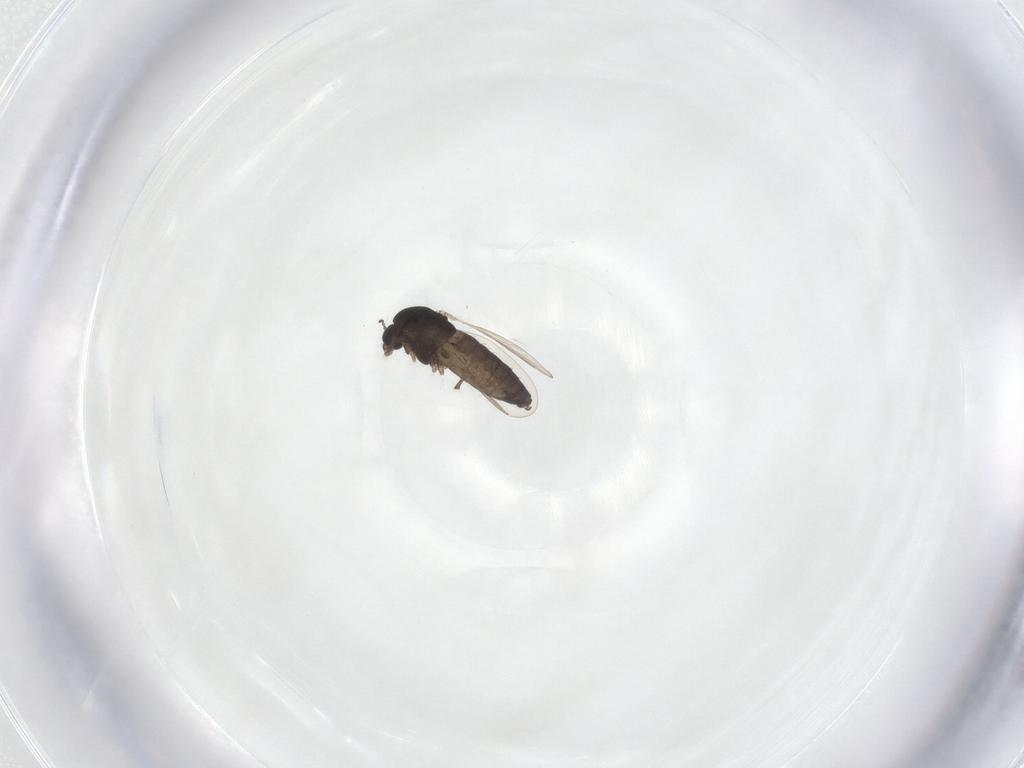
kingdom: Animalia
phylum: Arthropoda
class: Insecta
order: Diptera
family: Chironomidae
